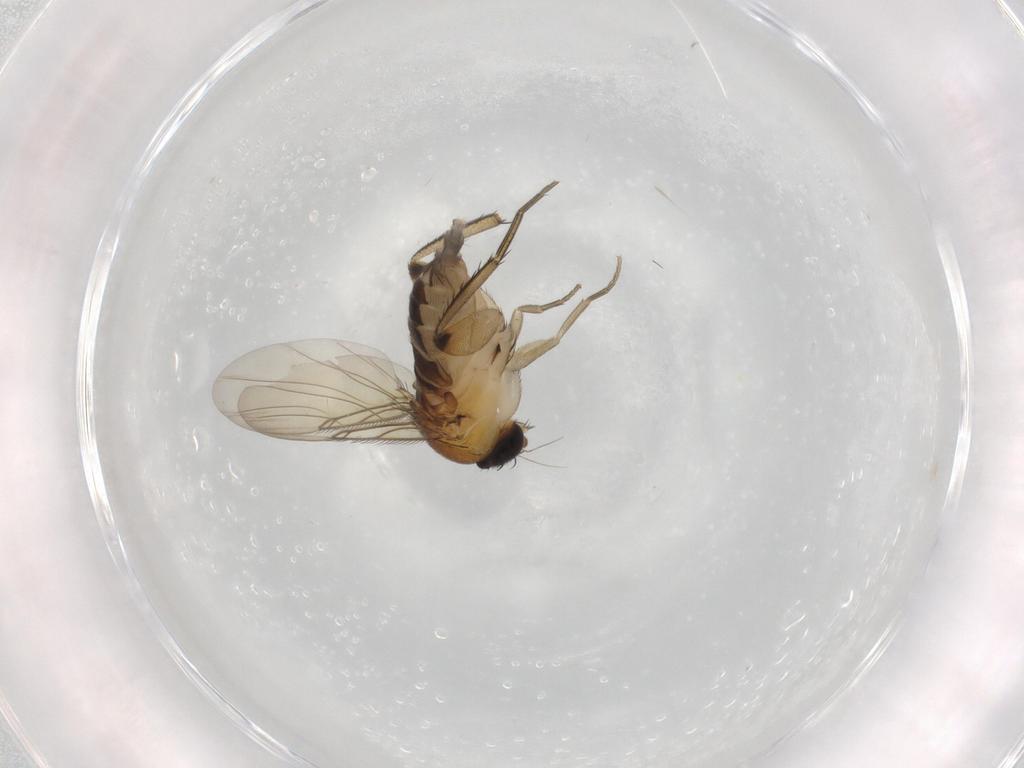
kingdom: Animalia
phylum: Arthropoda
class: Insecta
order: Diptera
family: Phoridae
